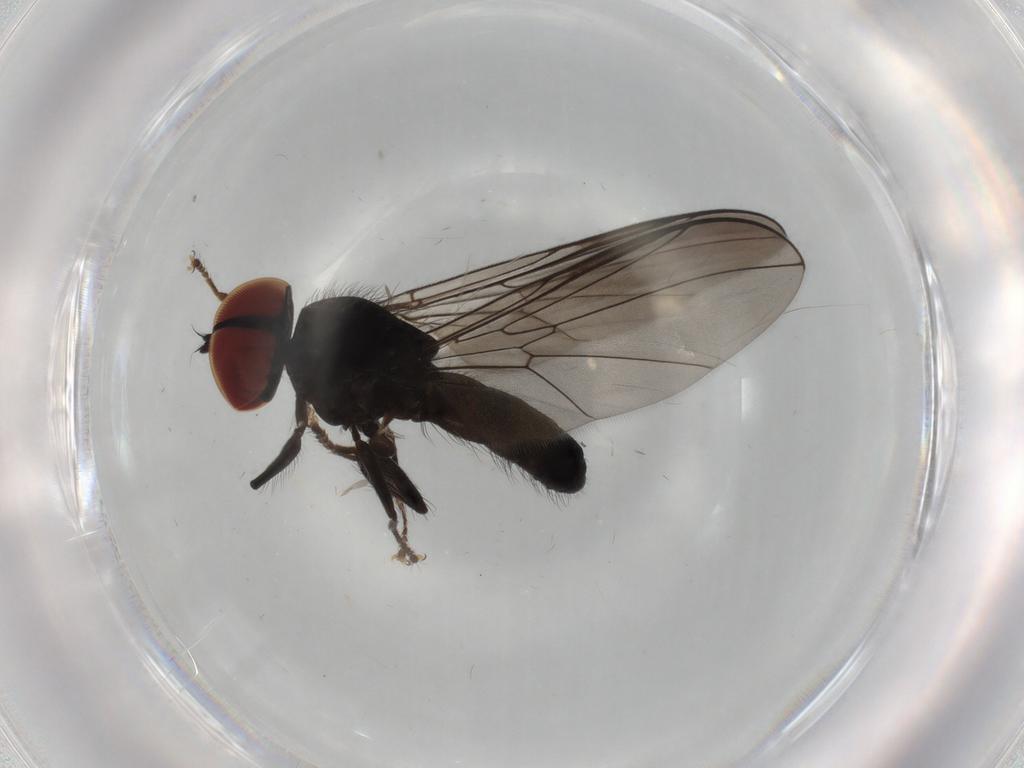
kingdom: Animalia
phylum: Arthropoda
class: Insecta
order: Diptera
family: Pipunculidae
